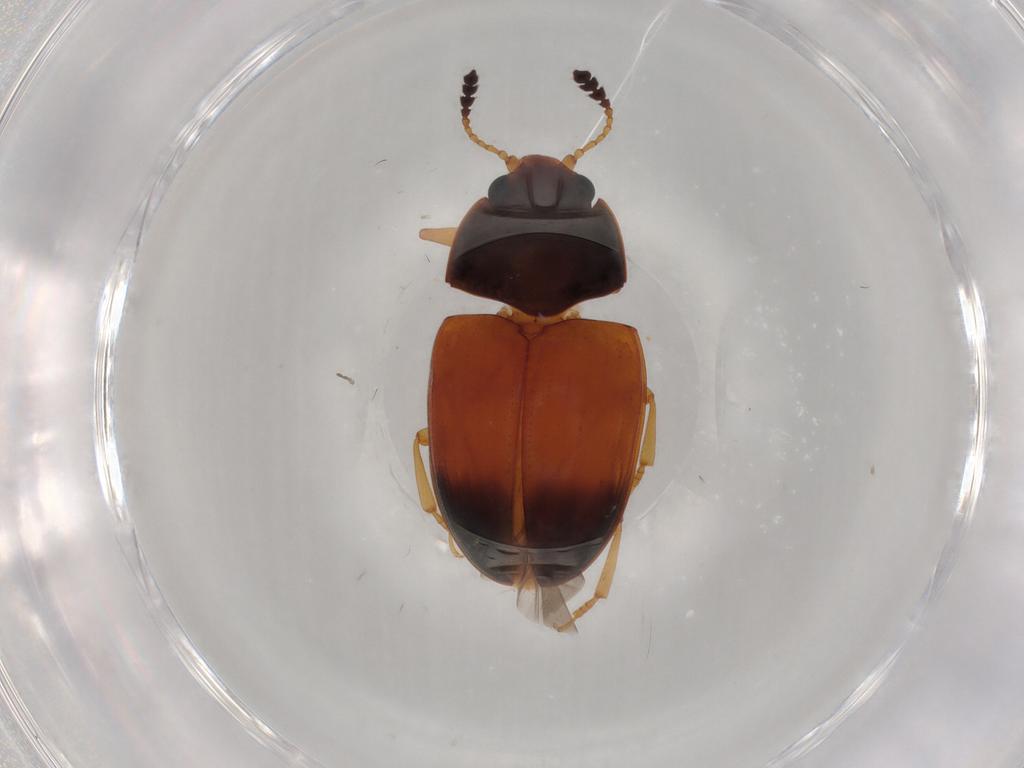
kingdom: Animalia
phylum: Arthropoda
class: Insecta
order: Coleoptera
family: Erotylidae
